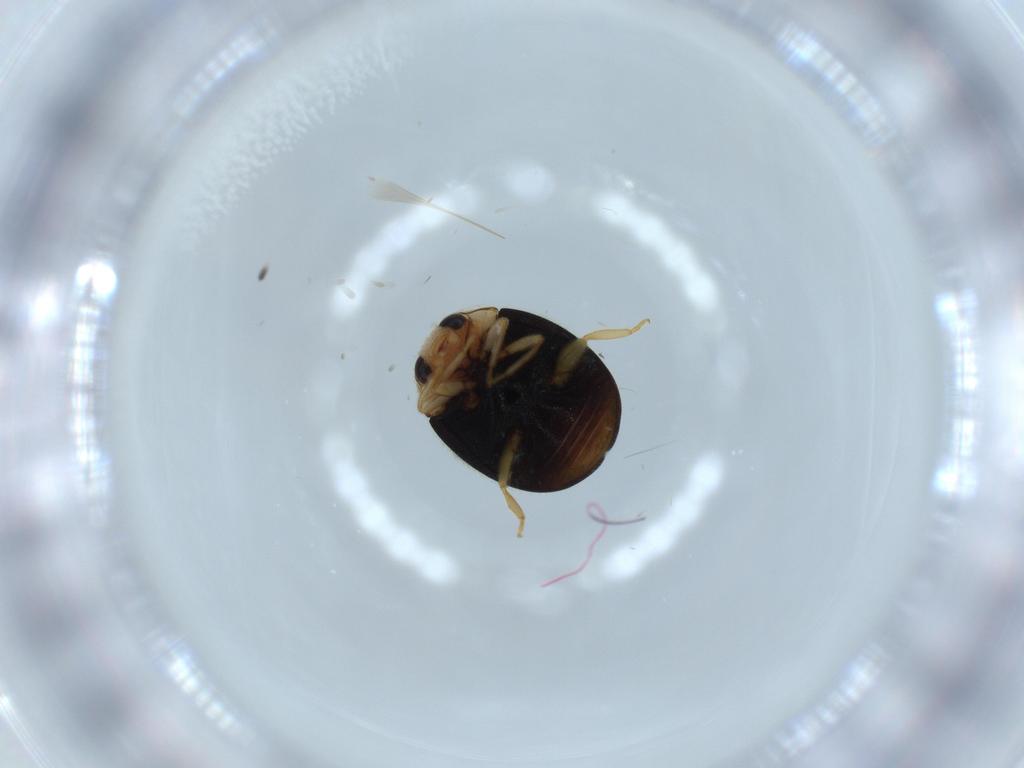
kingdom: Animalia
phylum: Arthropoda
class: Insecta
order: Coleoptera
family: Coccinellidae
